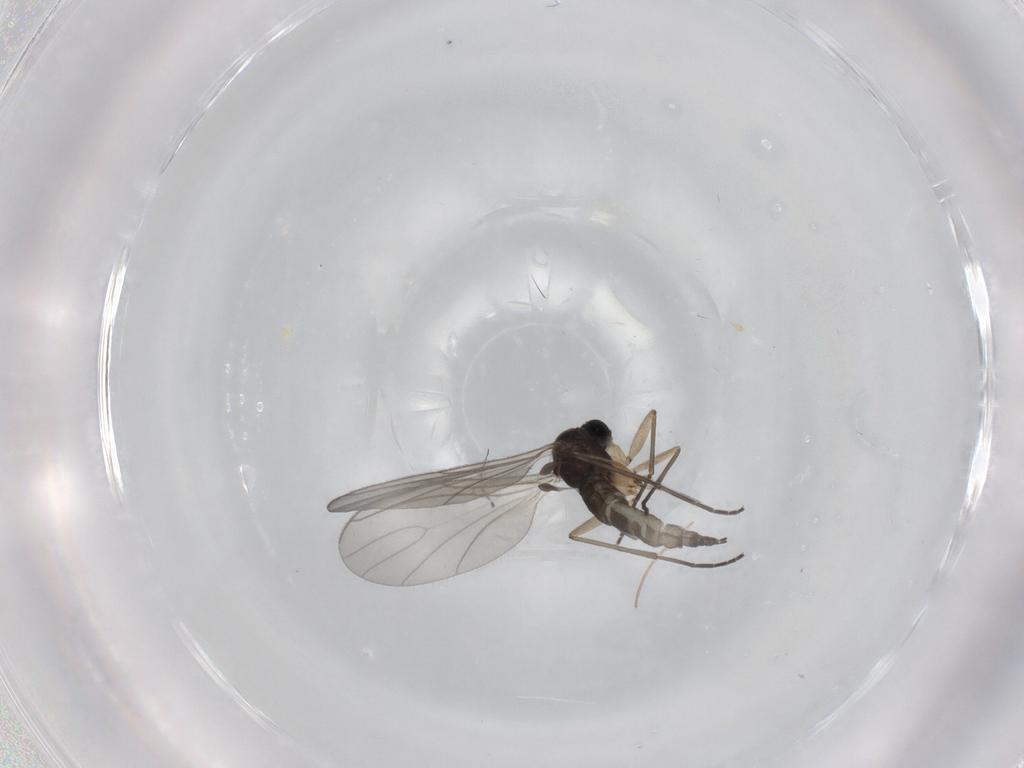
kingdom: Animalia
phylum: Arthropoda
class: Insecta
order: Diptera
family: Sciaridae
